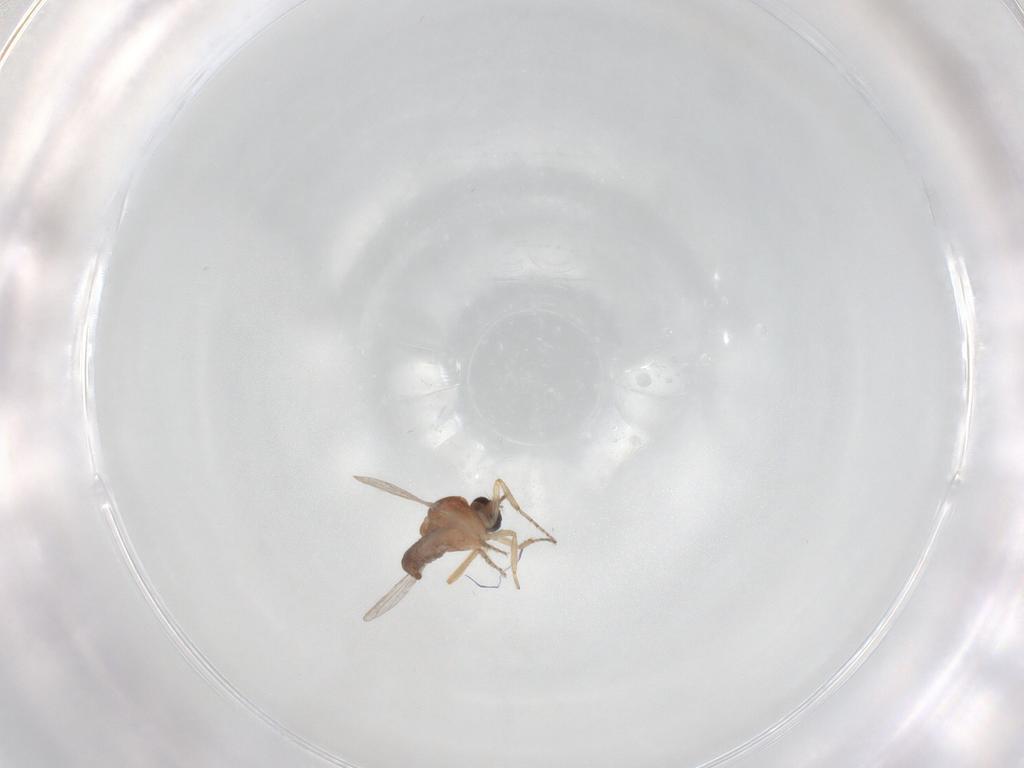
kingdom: Animalia
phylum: Arthropoda
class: Insecta
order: Diptera
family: Ceratopogonidae
